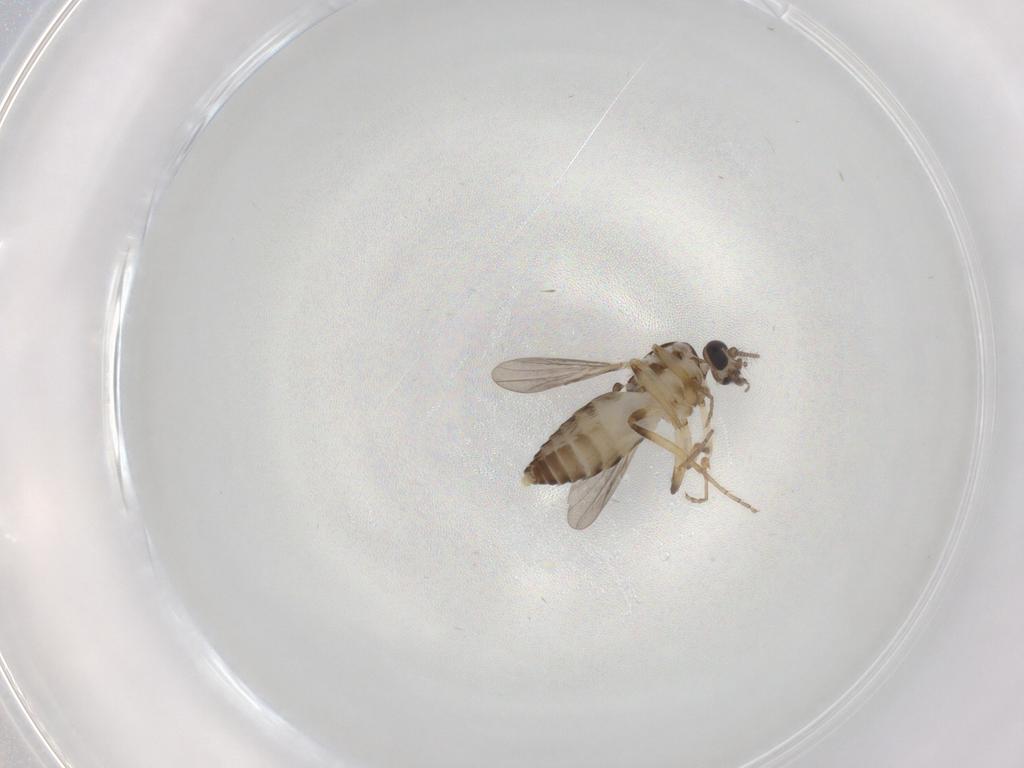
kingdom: Animalia
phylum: Arthropoda
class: Insecta
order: Diptera
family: Ceratopogonidae
